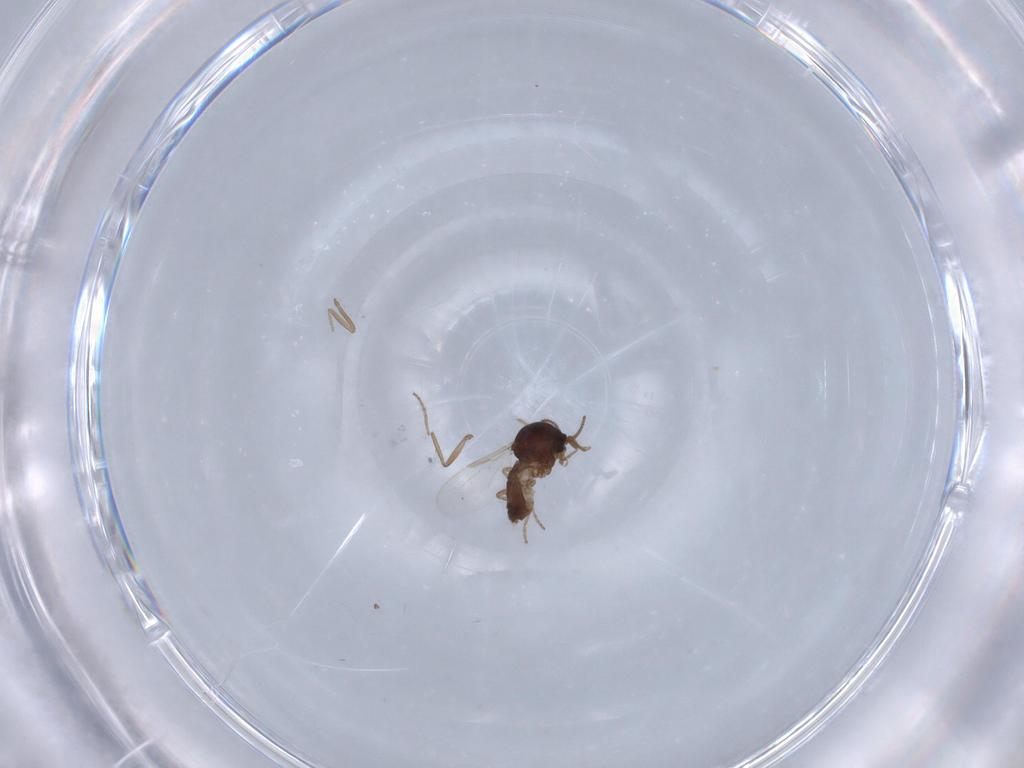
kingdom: Animalia
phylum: Arthropoda
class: Insecta
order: Diptera
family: Ceratopogonidae
